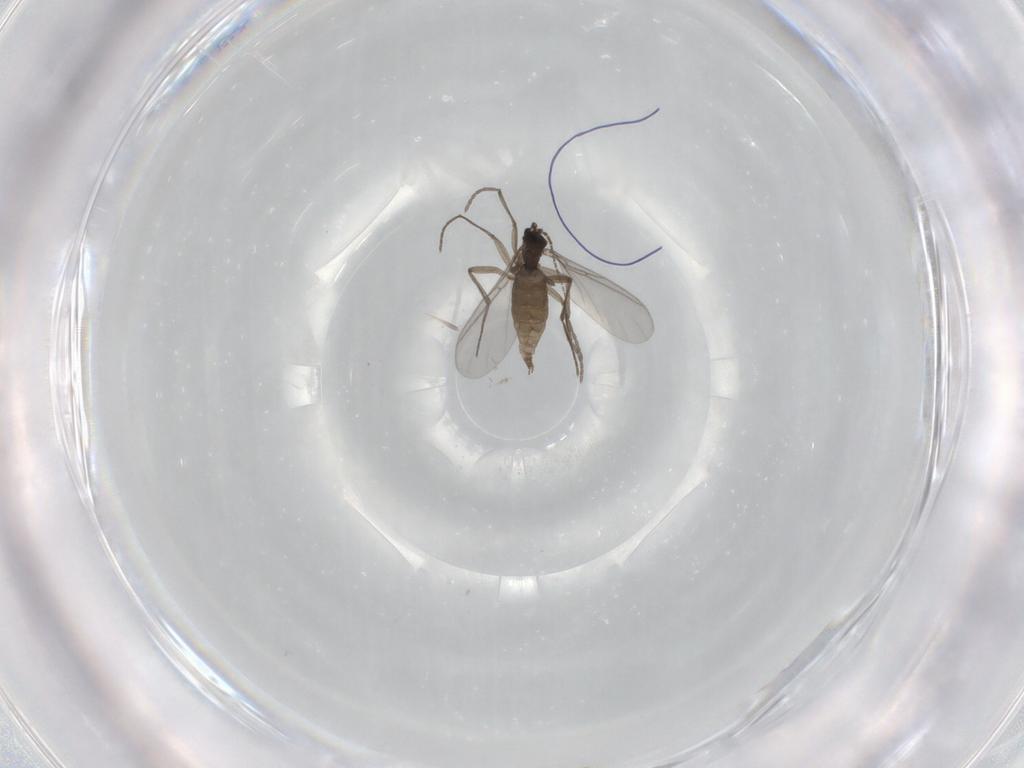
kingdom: Animalia
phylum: Arthropoda
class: Insecta
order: Diptera
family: Sciaridae
